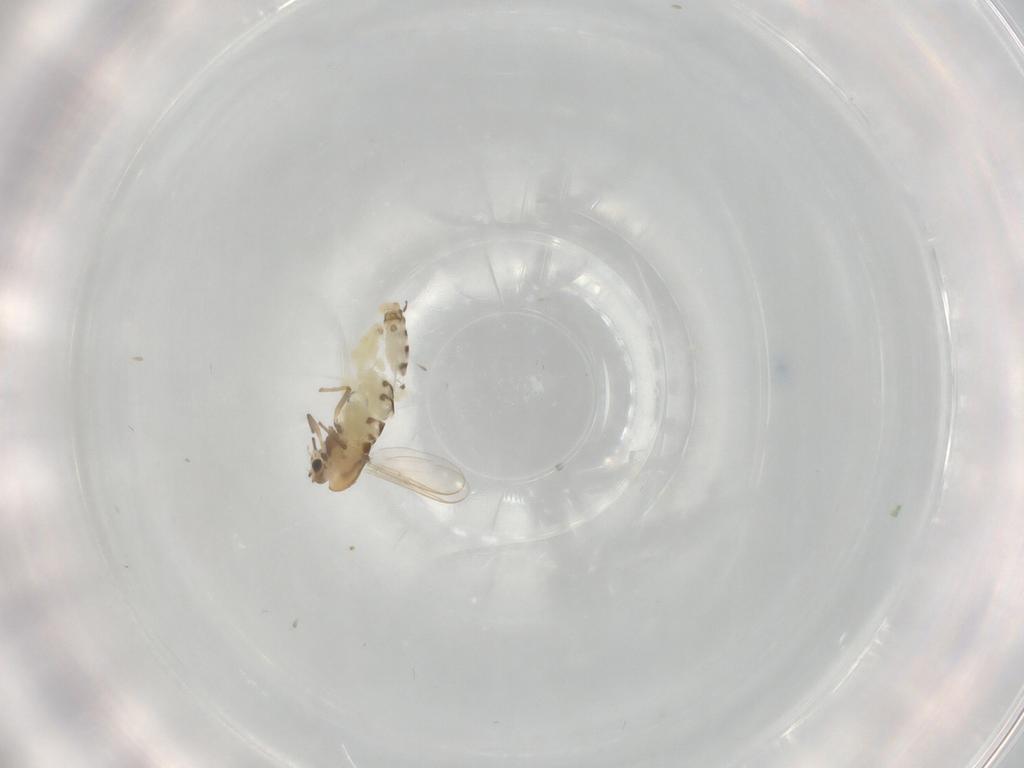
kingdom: Animalia
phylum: Arthropoda
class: Insecta
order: Diptera
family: Chironomidae
